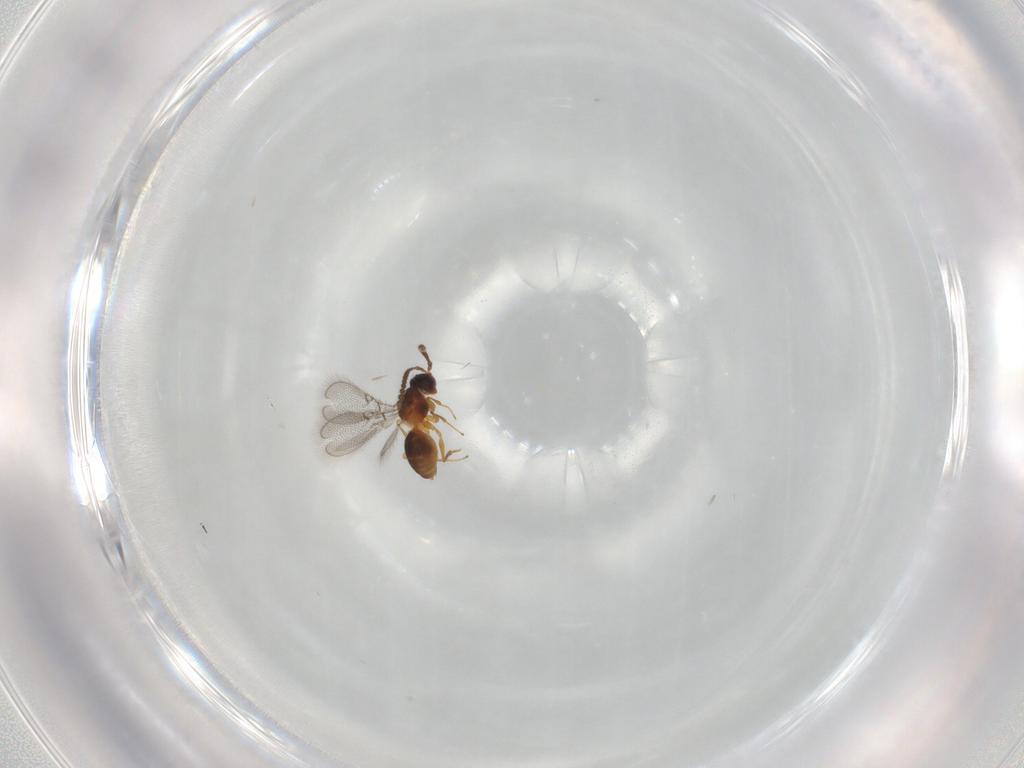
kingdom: Animalia
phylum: Arthropoda
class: Insecta
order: Hymenoptera
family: Figitidae
